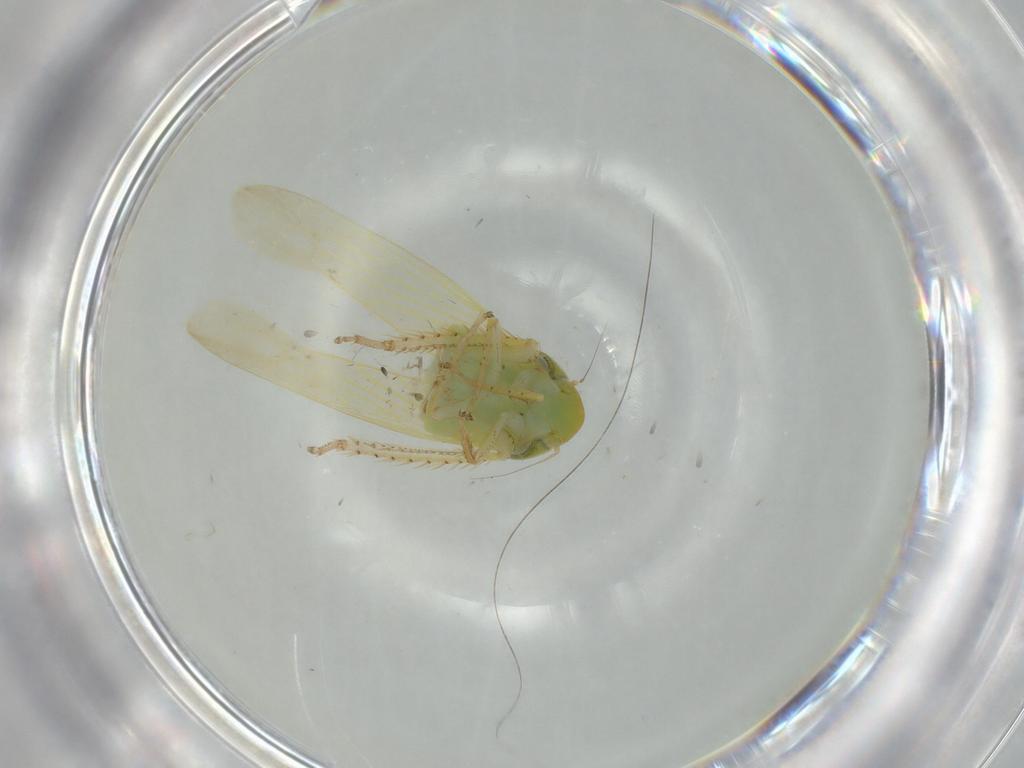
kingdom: Animalia
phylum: Arthropoda
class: Insecta
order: Hemiptera
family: Cicadellidae
